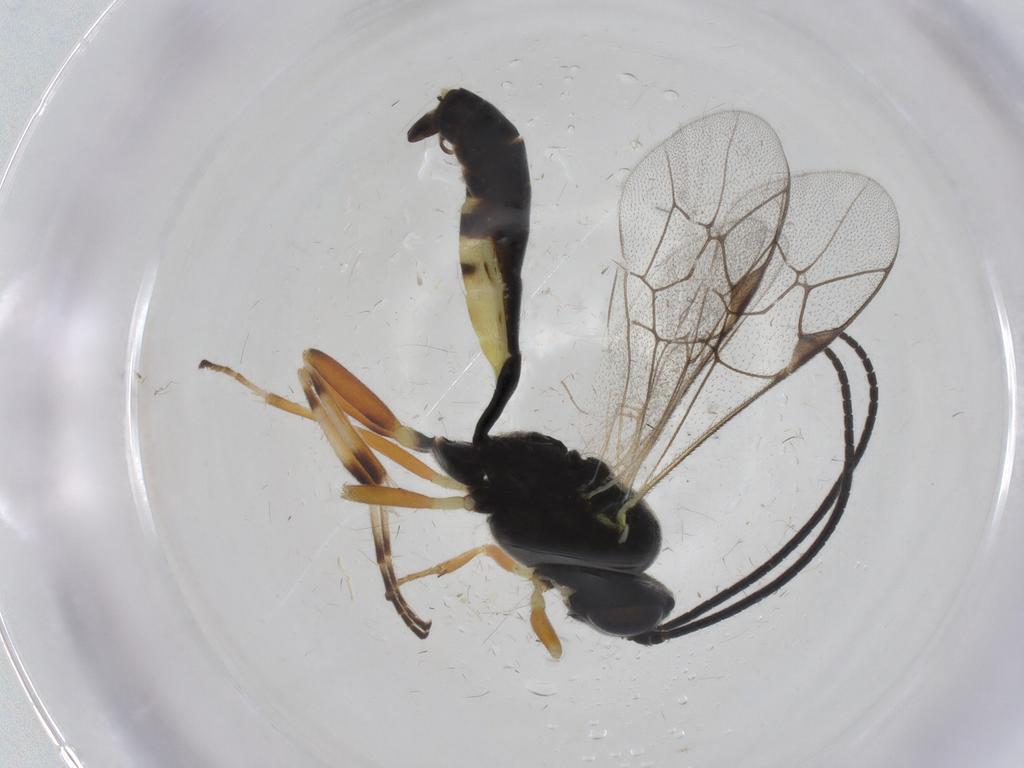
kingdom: Animalia
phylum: Arthropoda
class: Insecta
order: Hymenoptera
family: Ichneumonidae
